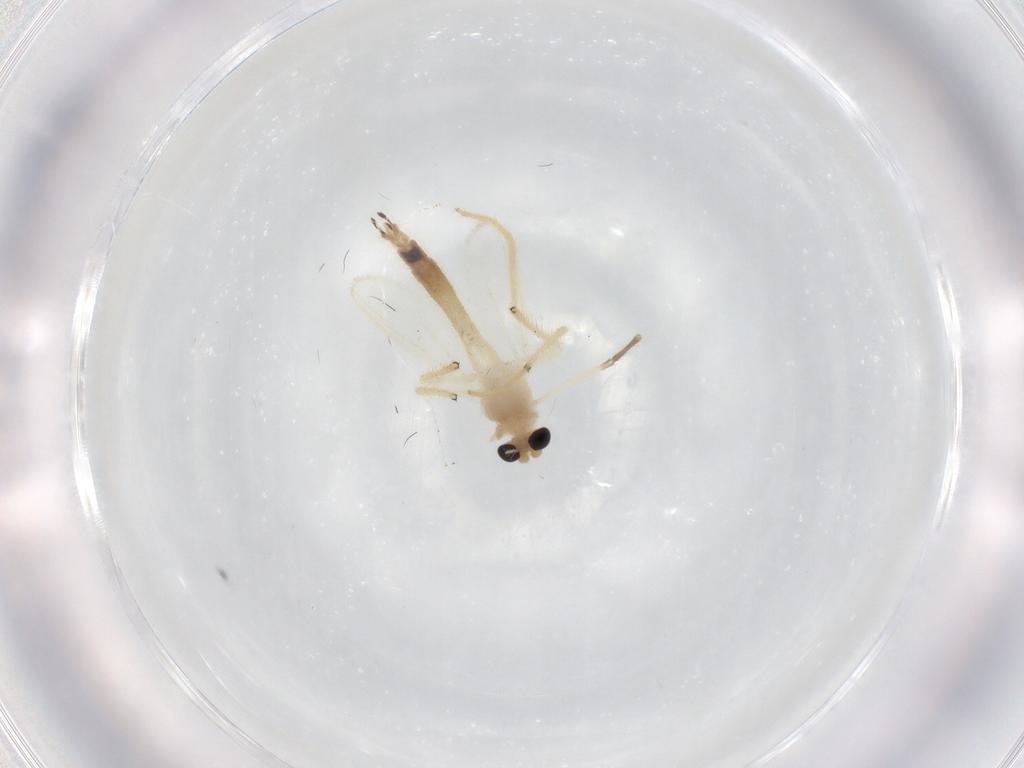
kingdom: Animalia
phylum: Arthropoda
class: Insecta
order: Diptera
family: Chironomidae
